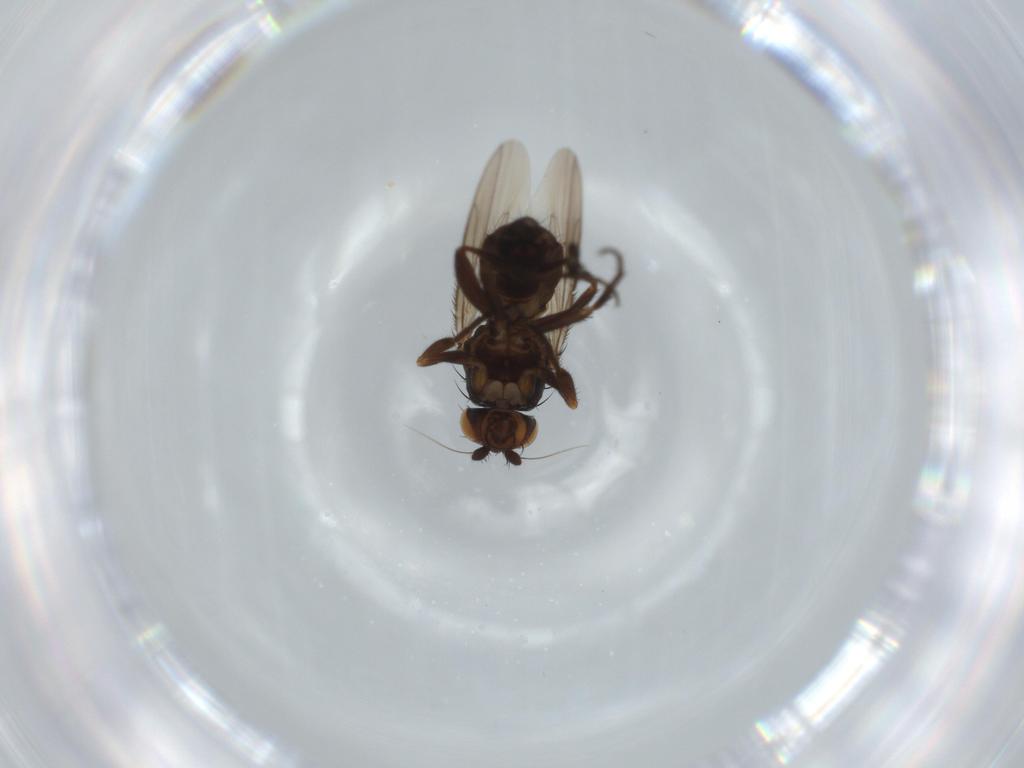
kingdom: Animalia
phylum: Arthropoda
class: Insecta
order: Diptera
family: Sphaeroceridae
